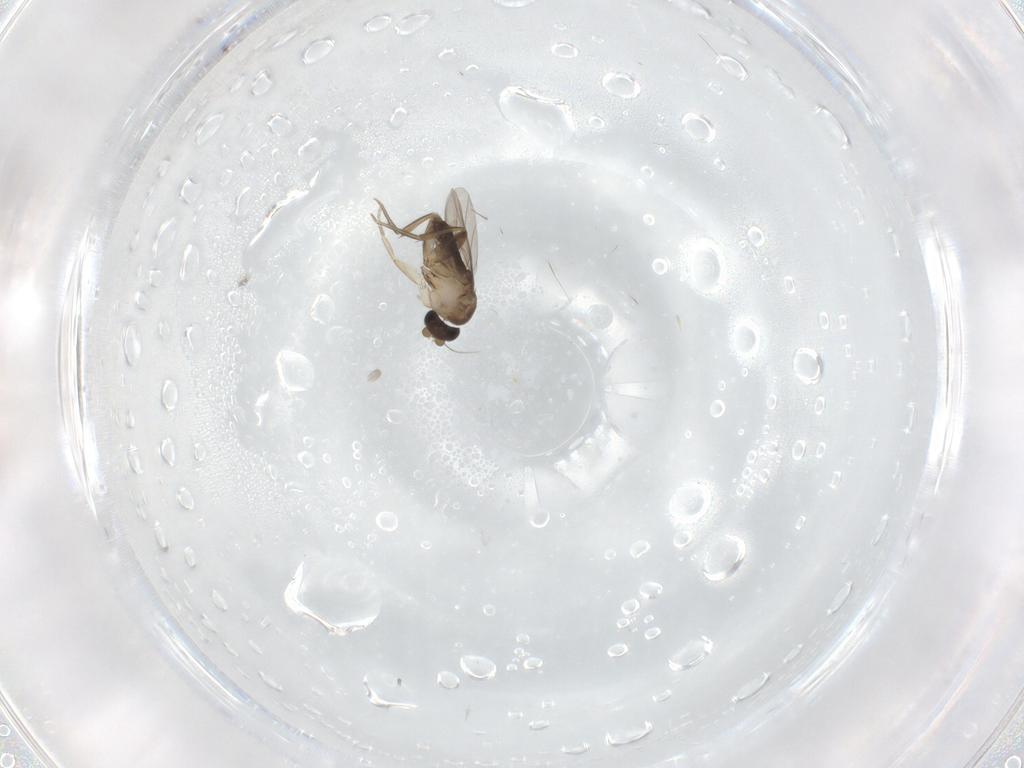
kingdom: Animalia
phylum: Arthropoda
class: Insecta
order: Diptera
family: Phoridae
